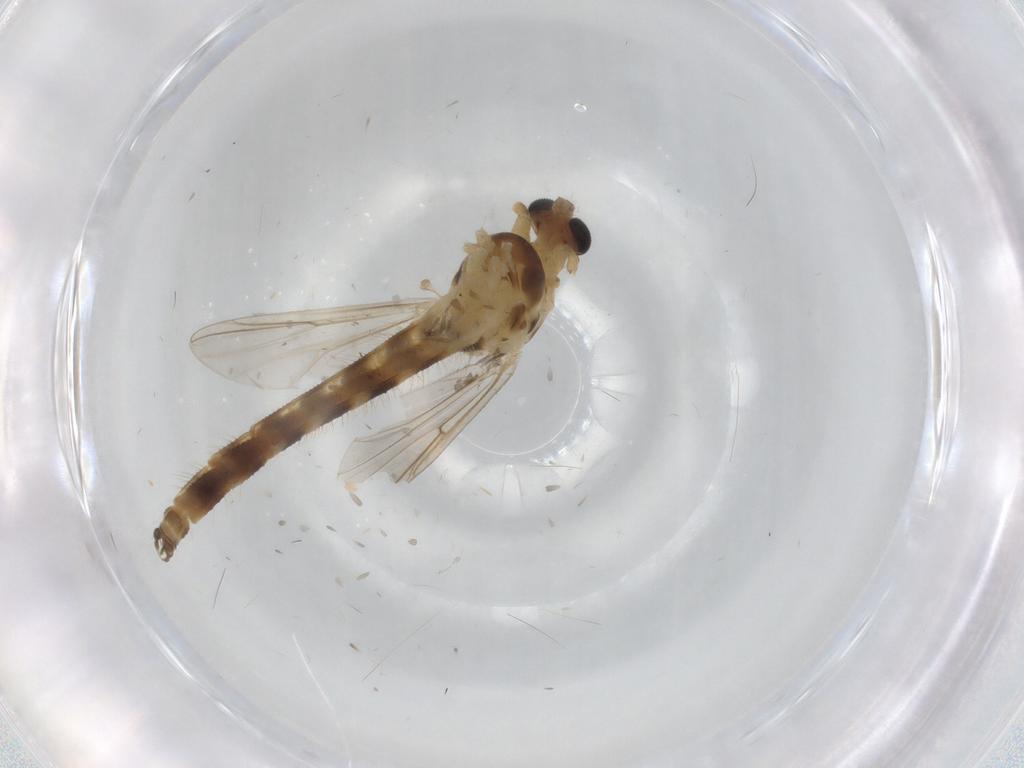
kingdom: Animalia
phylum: Arthropoda
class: Insecta
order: Diptera
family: Chironomidae
